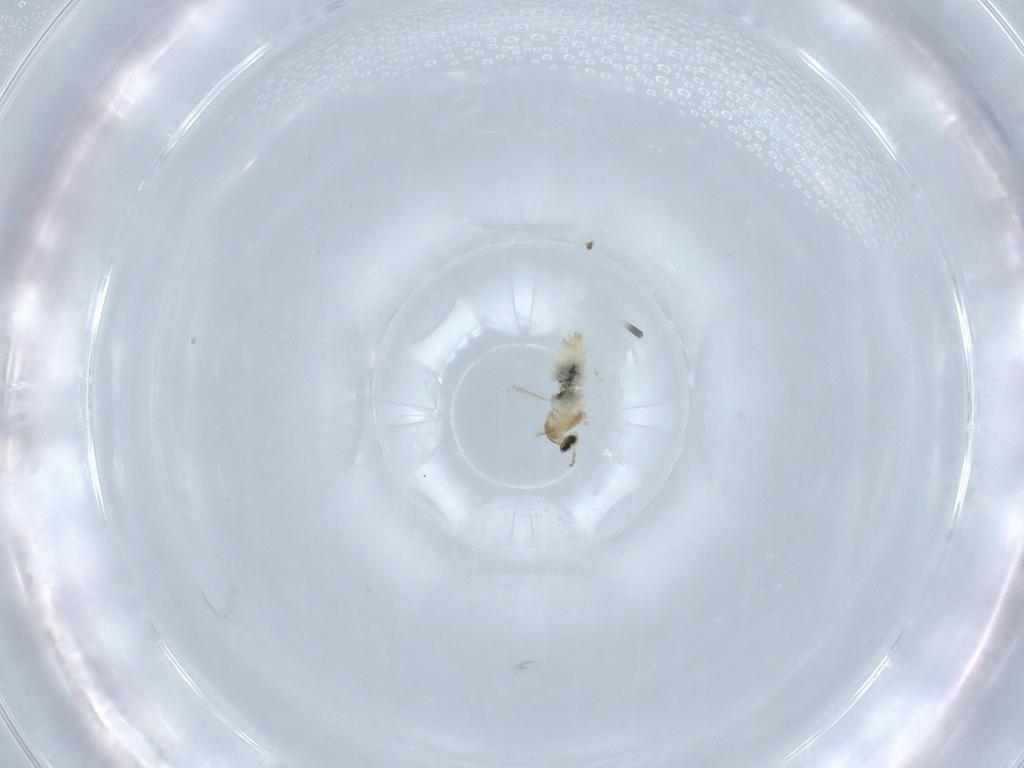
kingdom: Animalia
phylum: Arthropoda
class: Insecta
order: Diptera
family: Cecidomyiidae
